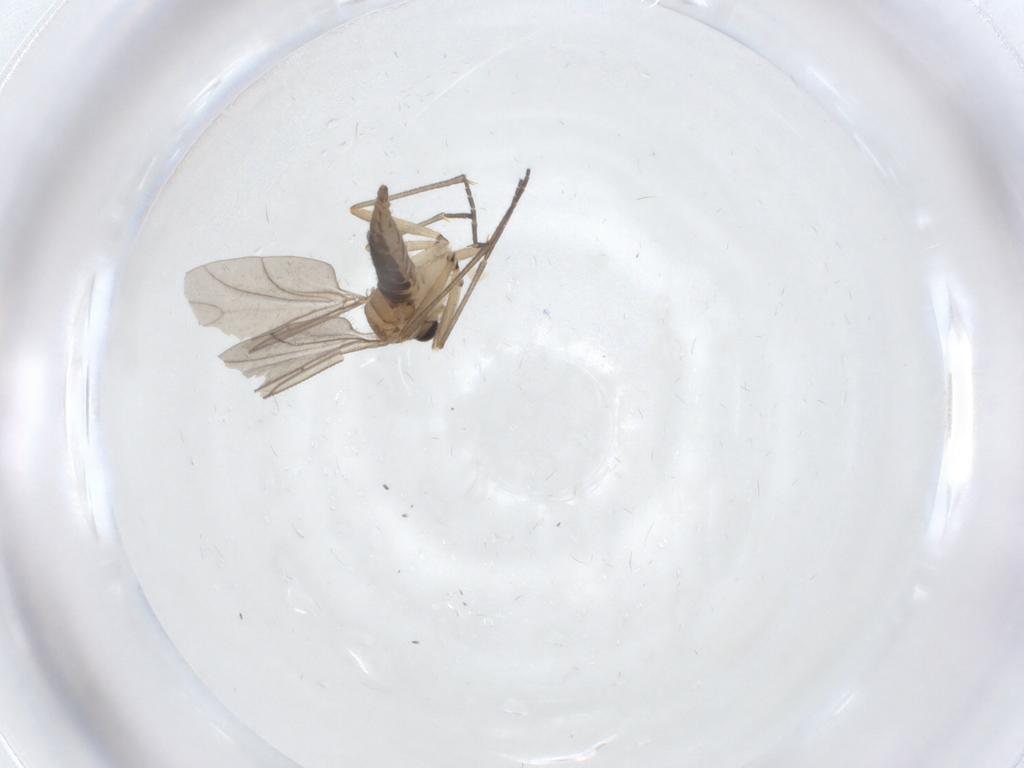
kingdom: Animalia
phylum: Arthropoda
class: Insecta
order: Diptera
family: Sciaridae
